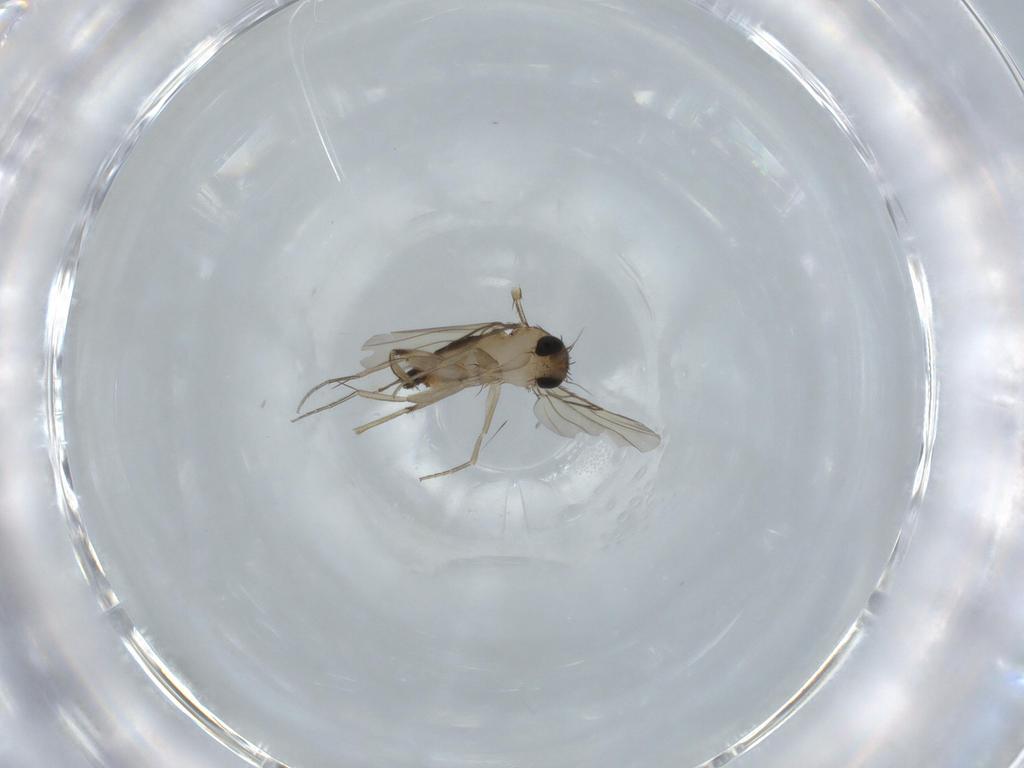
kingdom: Animalia
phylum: Arthropoda
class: Insecta
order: Diptera
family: Phoridae
